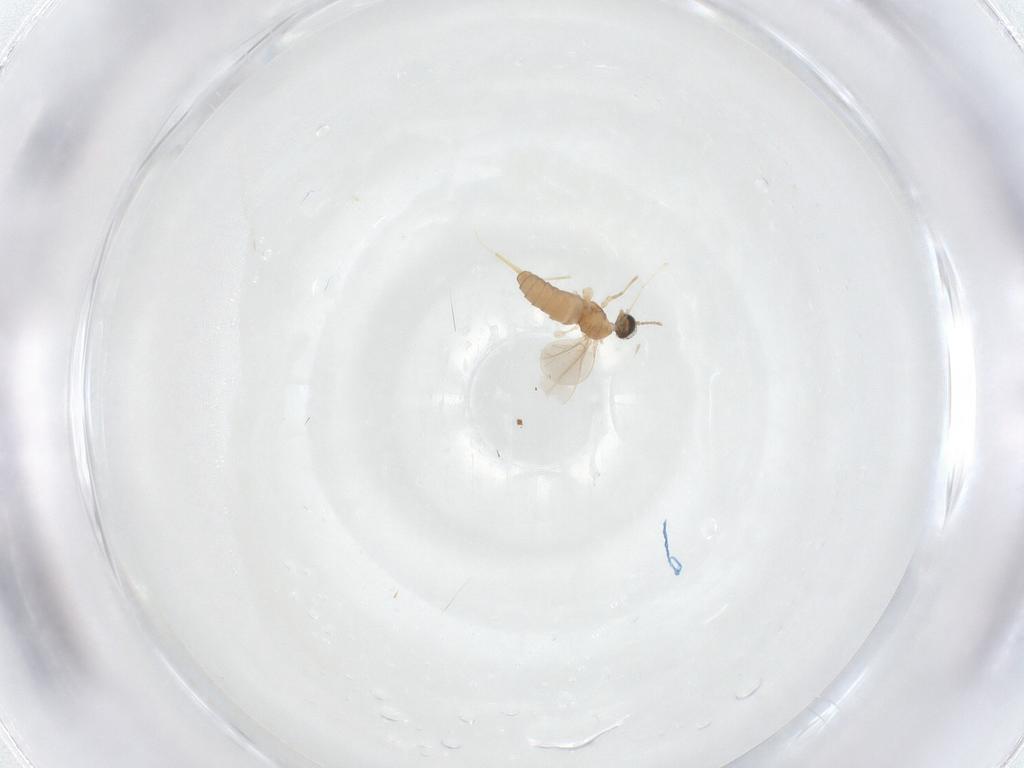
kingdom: Animalia
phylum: Arthropoda
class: Insecta
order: Diptera
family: Cecidomyiidae
